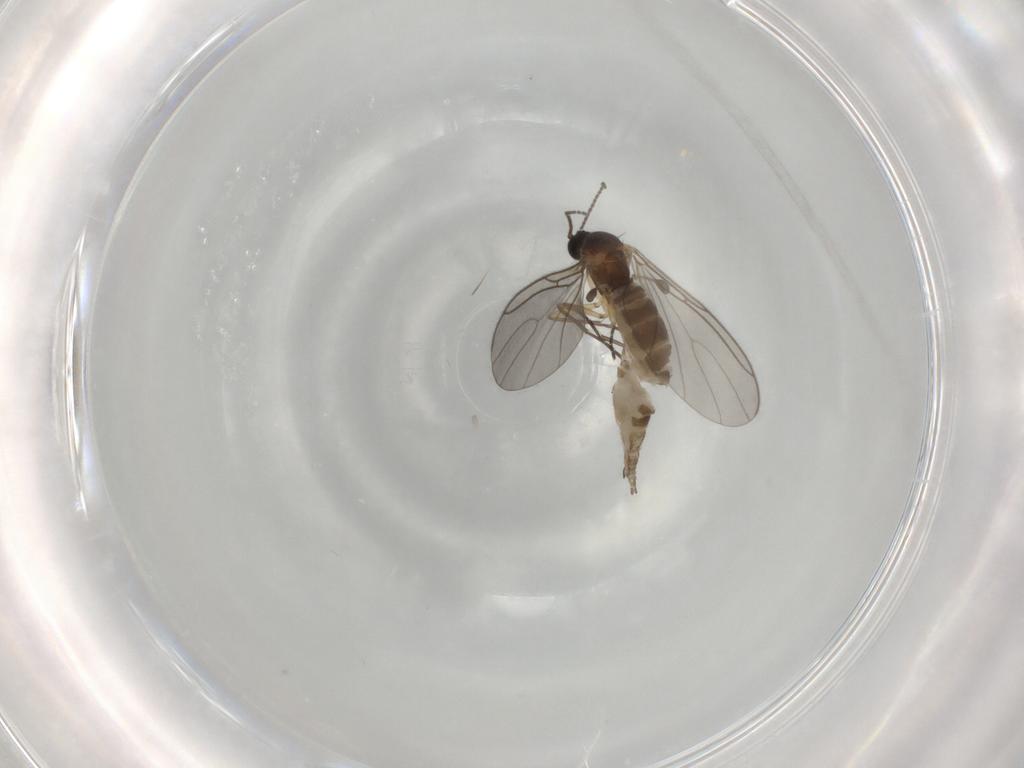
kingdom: Animalia
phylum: Arthropoda
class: Insecta
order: Diptera
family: Sciaridae
